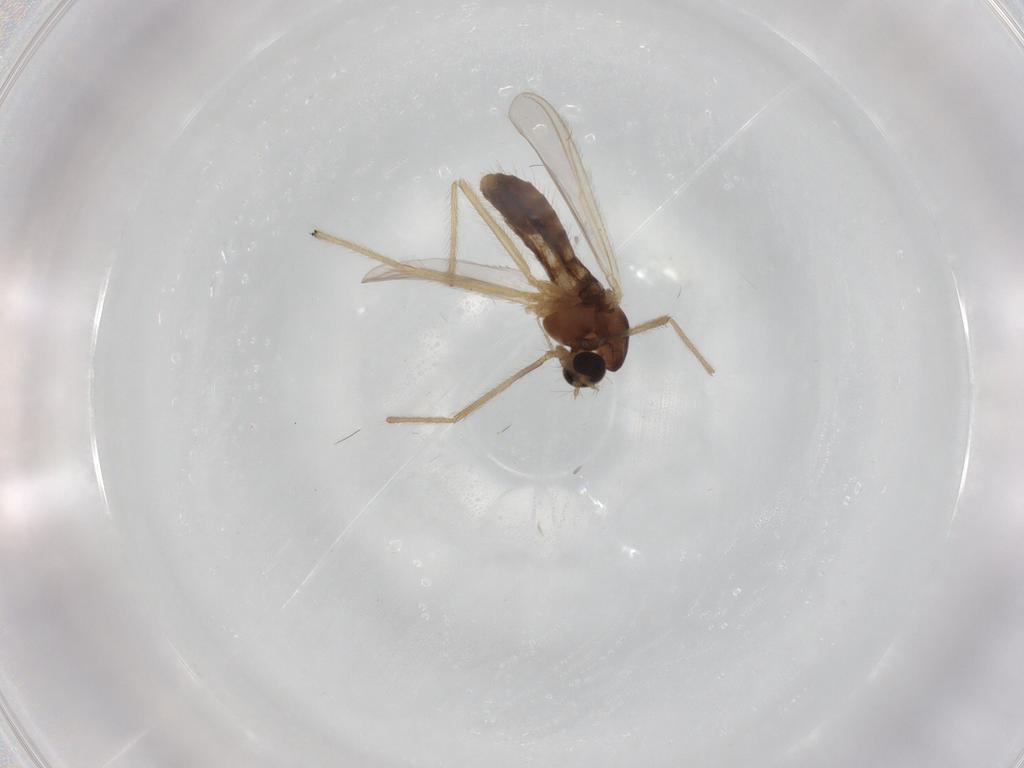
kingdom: Animalia
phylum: Arthropoda
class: Insecta
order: Diptera
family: Chironomidae
